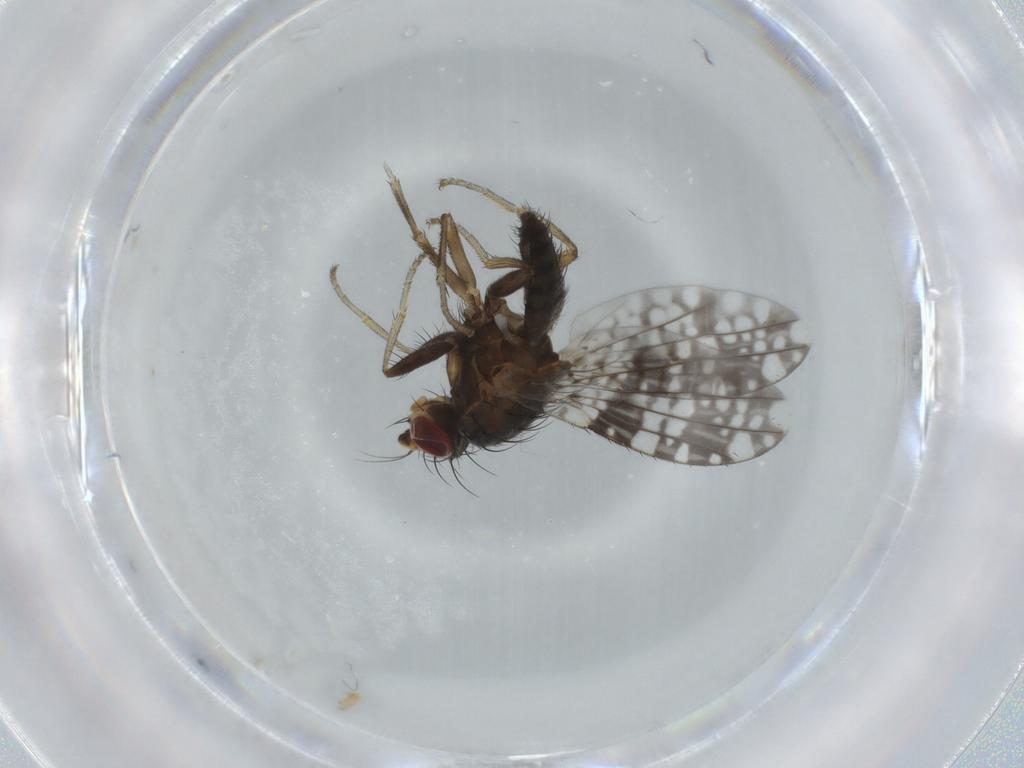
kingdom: Animalia
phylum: Arthropoda
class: Insecta
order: Diptera
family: Tephritidae
